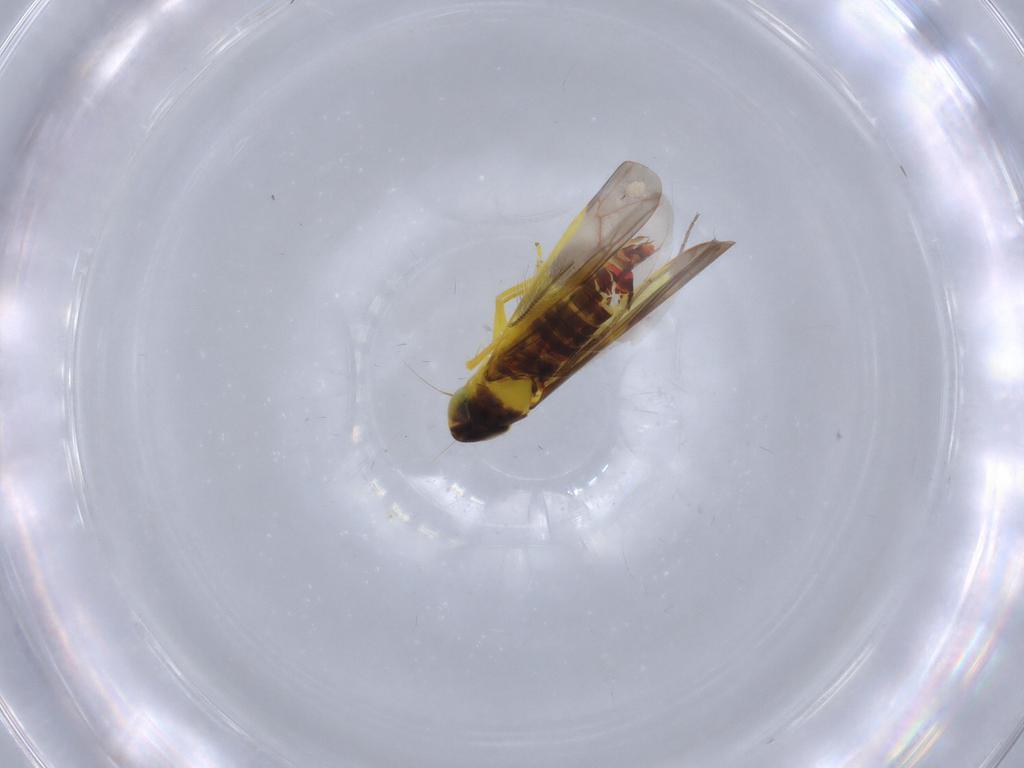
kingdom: Animalia
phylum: Arthropoda
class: Insecta
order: Hemiptera
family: Cicadellidae
